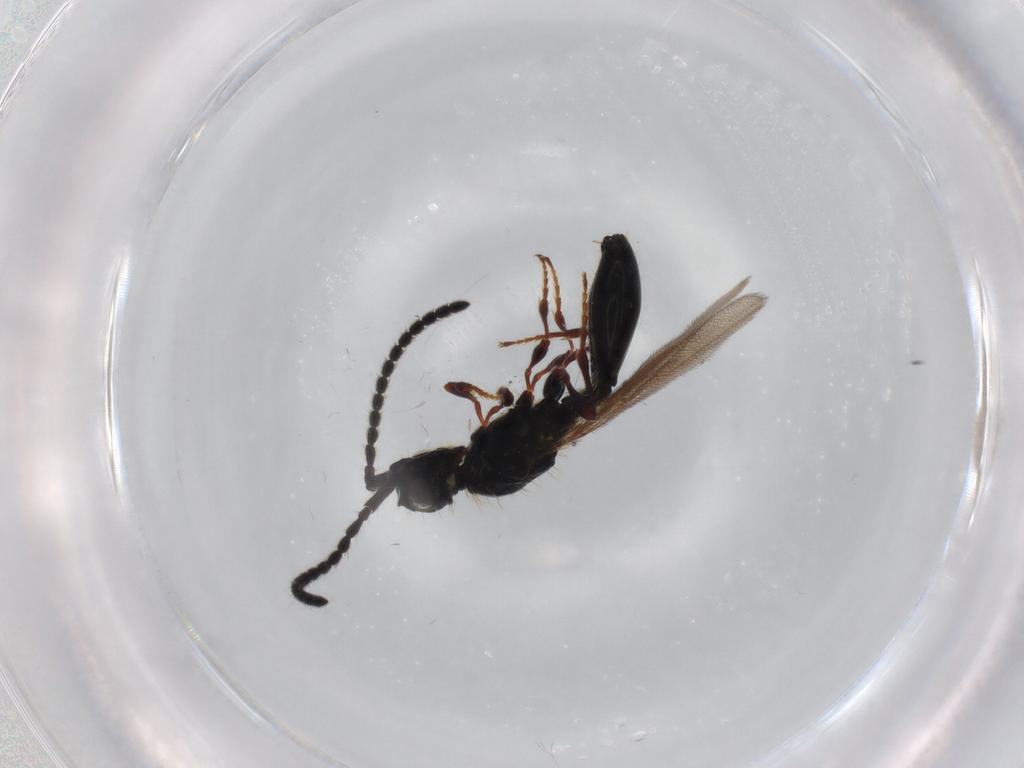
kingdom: Animalia
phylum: Arthropoda
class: Insecta
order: Hymenoptera
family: Diapriidae
